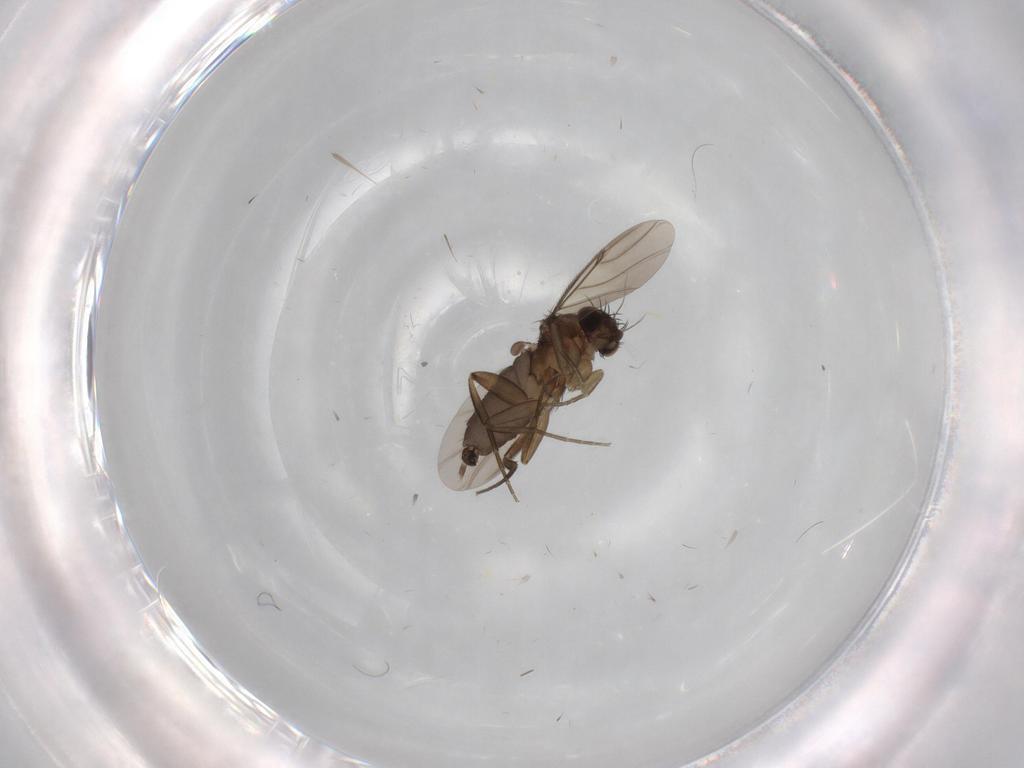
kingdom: Animalia
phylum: Arthropoda
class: Insecta
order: Diptera
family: Phoridae
